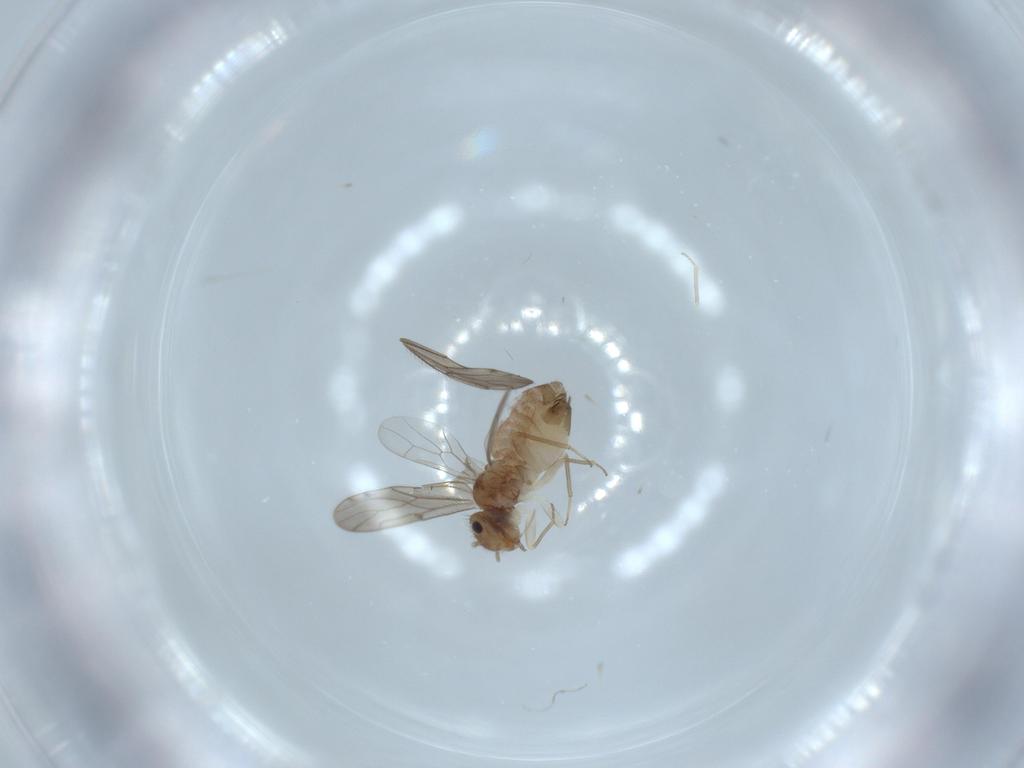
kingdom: Animalia
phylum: Arthropoda
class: Insecta
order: Psocodea
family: Ectopsocidae
